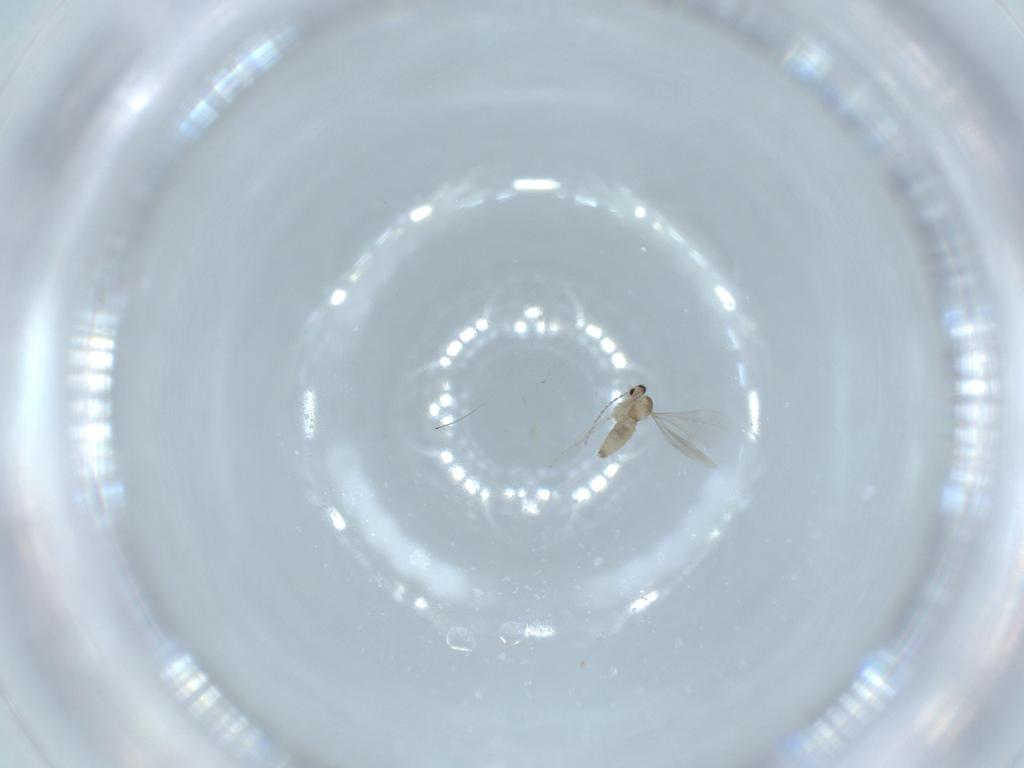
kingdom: Animalia
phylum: Arthropoda
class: Insecta
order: Diptera
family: Cecidomyiidae
